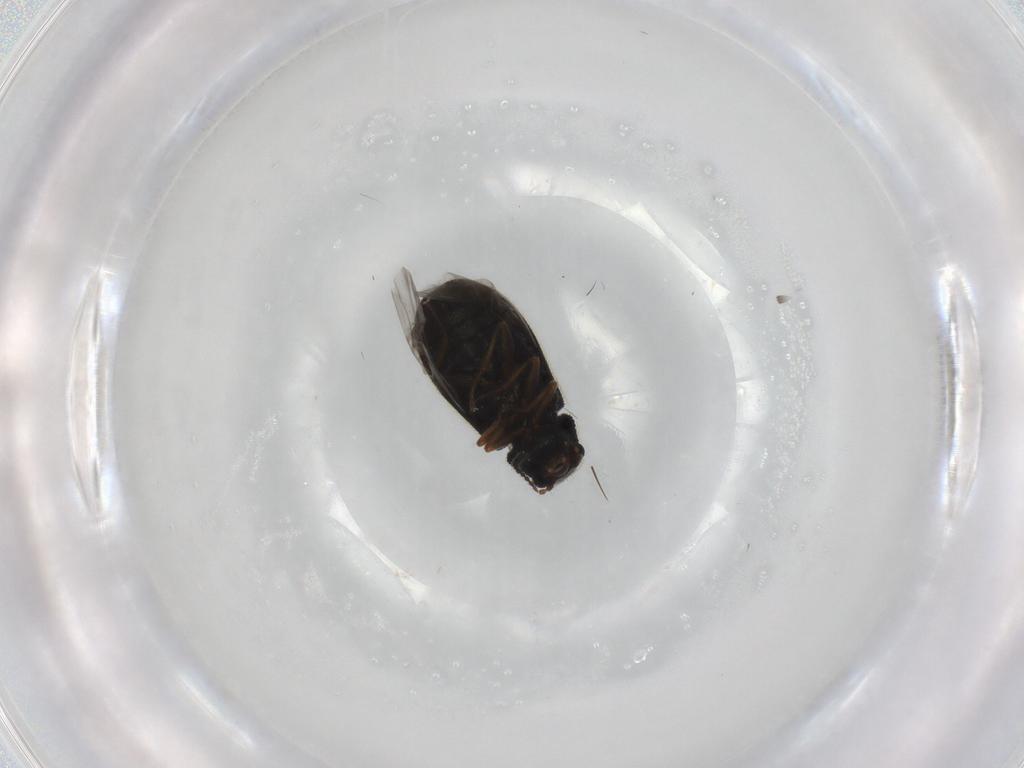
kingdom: Animalia
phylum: Arthropoda
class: Insecta
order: Coleoptera
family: Melyridae
